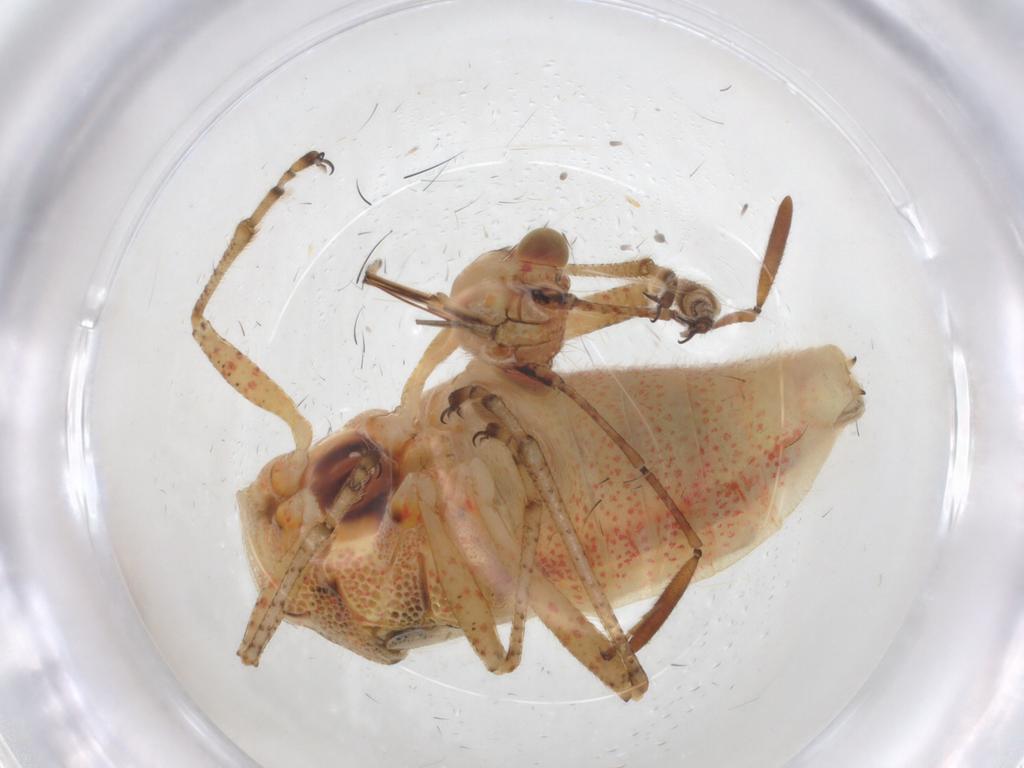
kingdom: Animalia
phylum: Arthropoda
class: Insecta
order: Hemiptera
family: Rhopalidae
